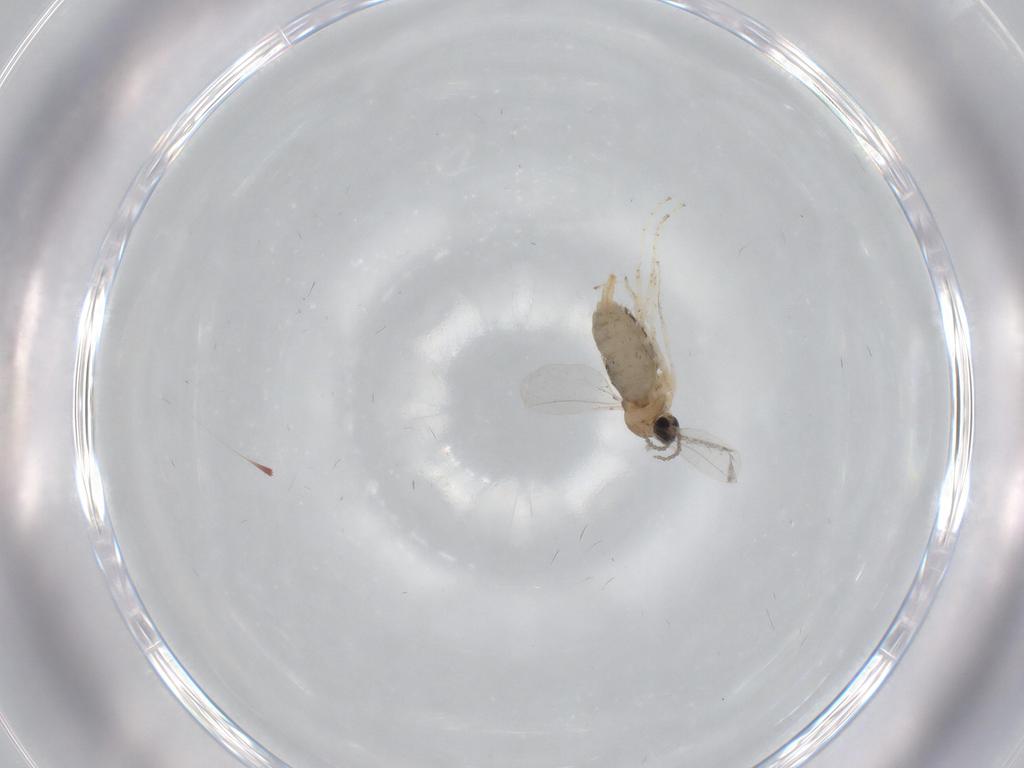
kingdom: Animalia
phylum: Arthropoda
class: Insecta
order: Diptera
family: Cecidomyiidae
